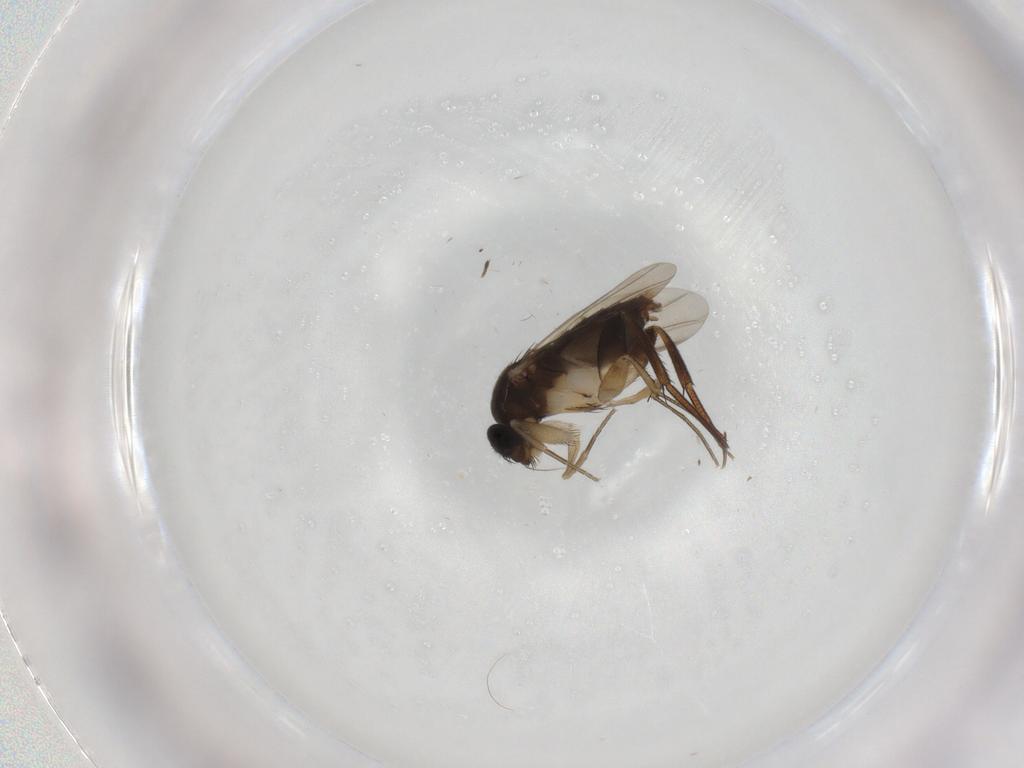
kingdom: Animalia
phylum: Arthropoda
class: Insecta
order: Diptera
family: Phoridae
